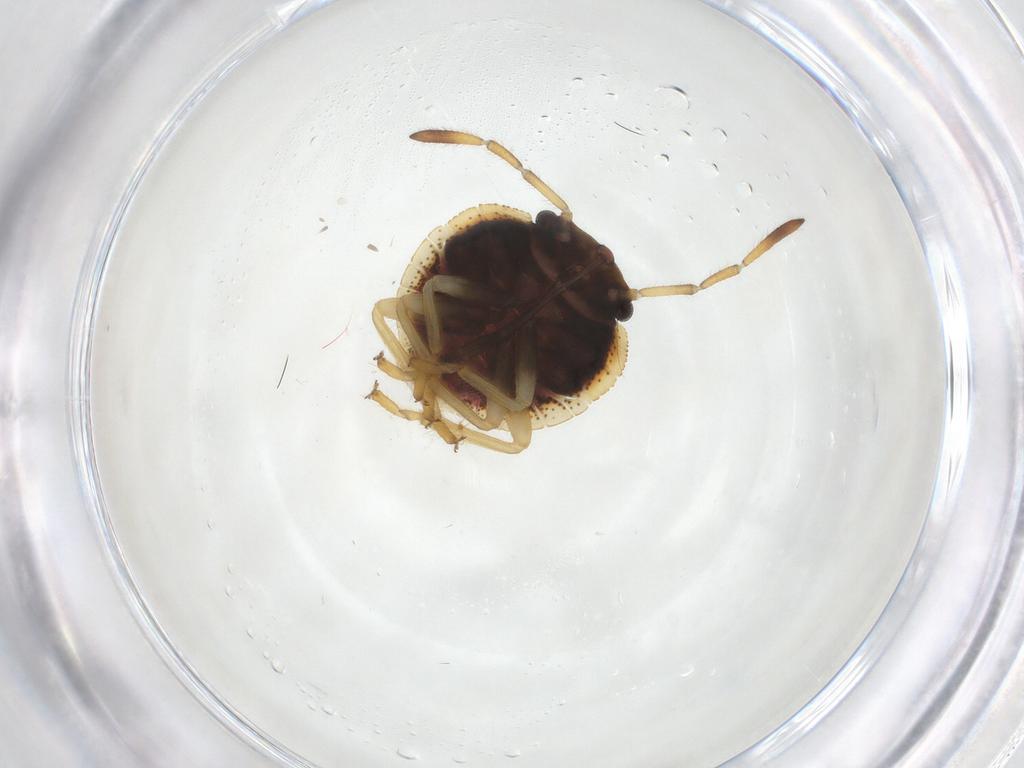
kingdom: Animalia
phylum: Arthropoda
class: Insecta
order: Hemiptera
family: Pentatomidae
